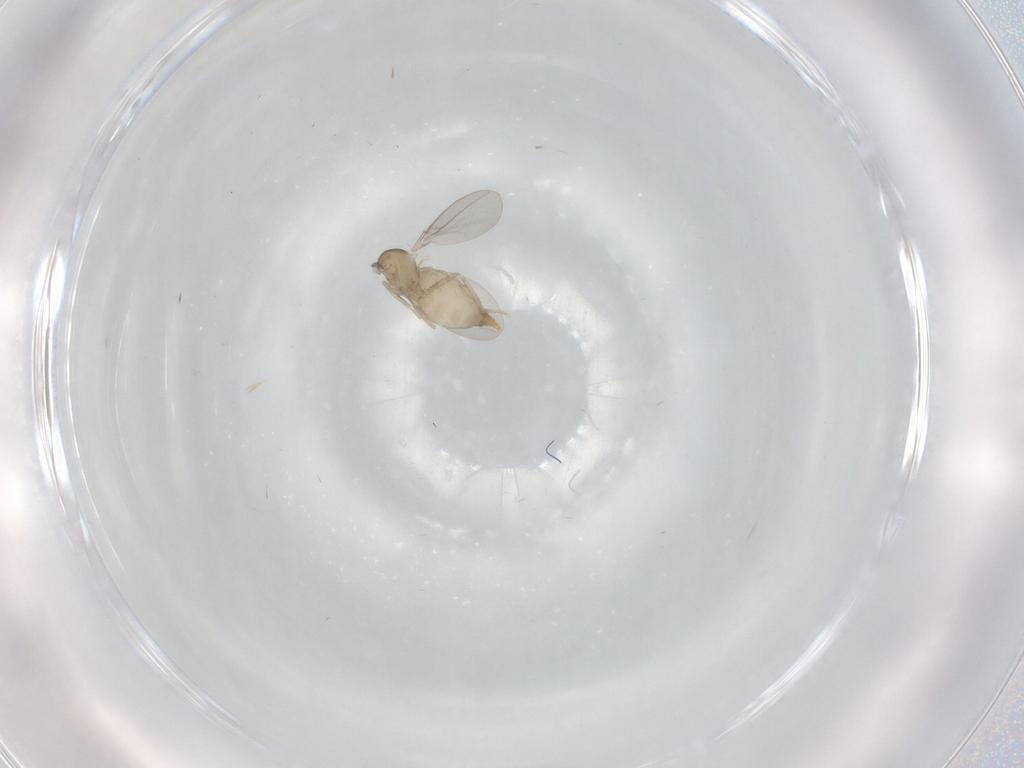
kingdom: Animalia
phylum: Arthropoda
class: Insecta
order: Diptera
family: Cecidomyiidae
